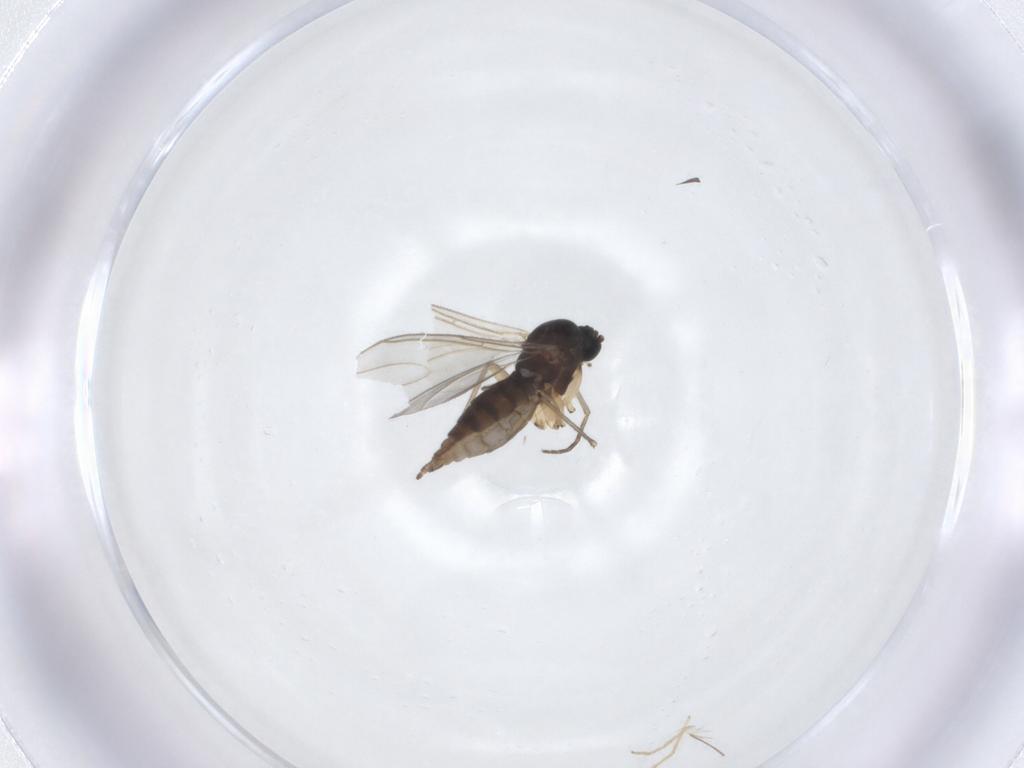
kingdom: Animalia
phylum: Arthropoda
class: Insecta
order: Diptera
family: Sciaridae
